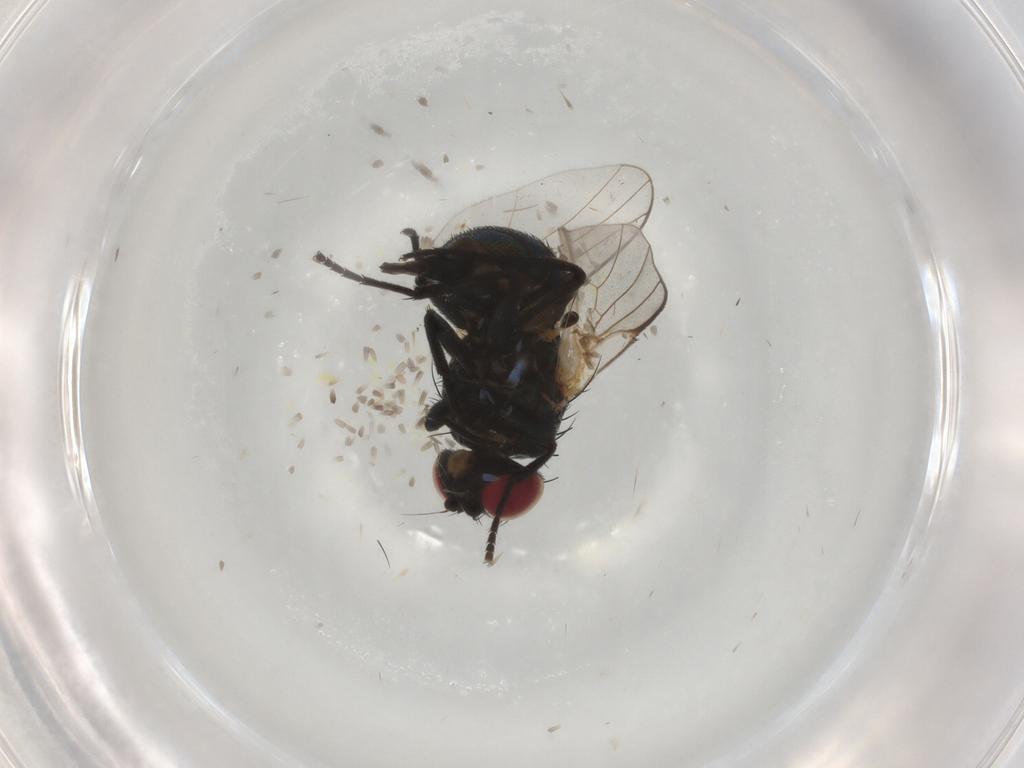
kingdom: Animalia
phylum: Arthropoda
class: Insecta
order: Diptera
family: Agromyzidae
